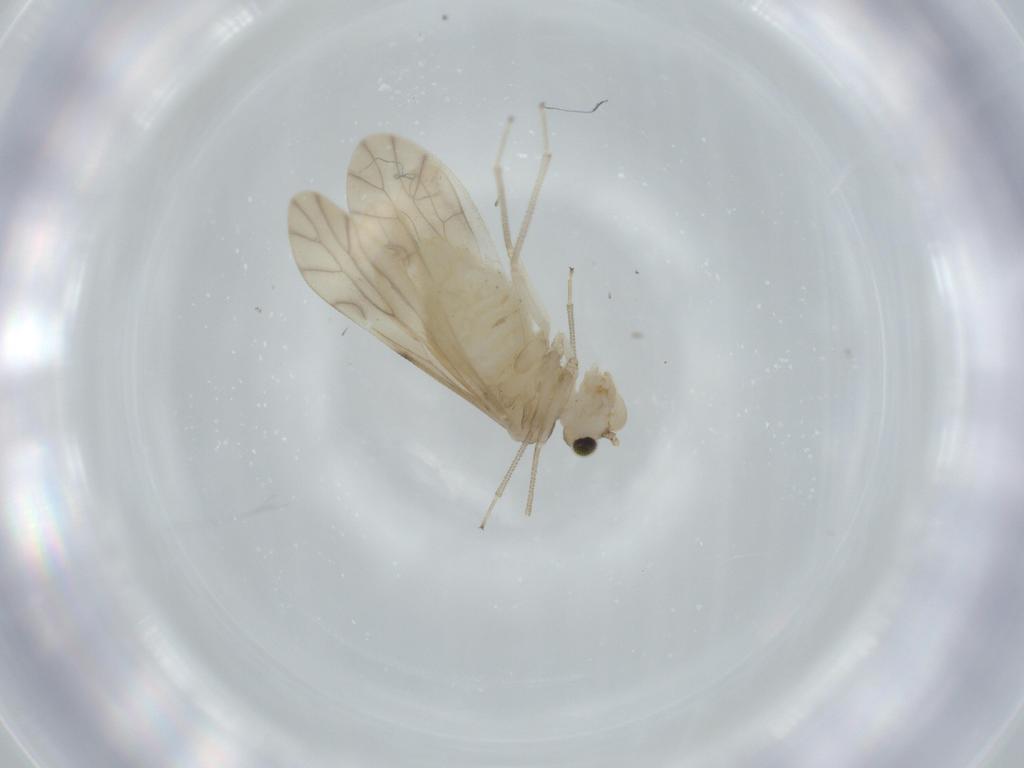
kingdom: Animalia
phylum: Arthropoda
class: Insecta
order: Psocodea
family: Caeciliusidae
